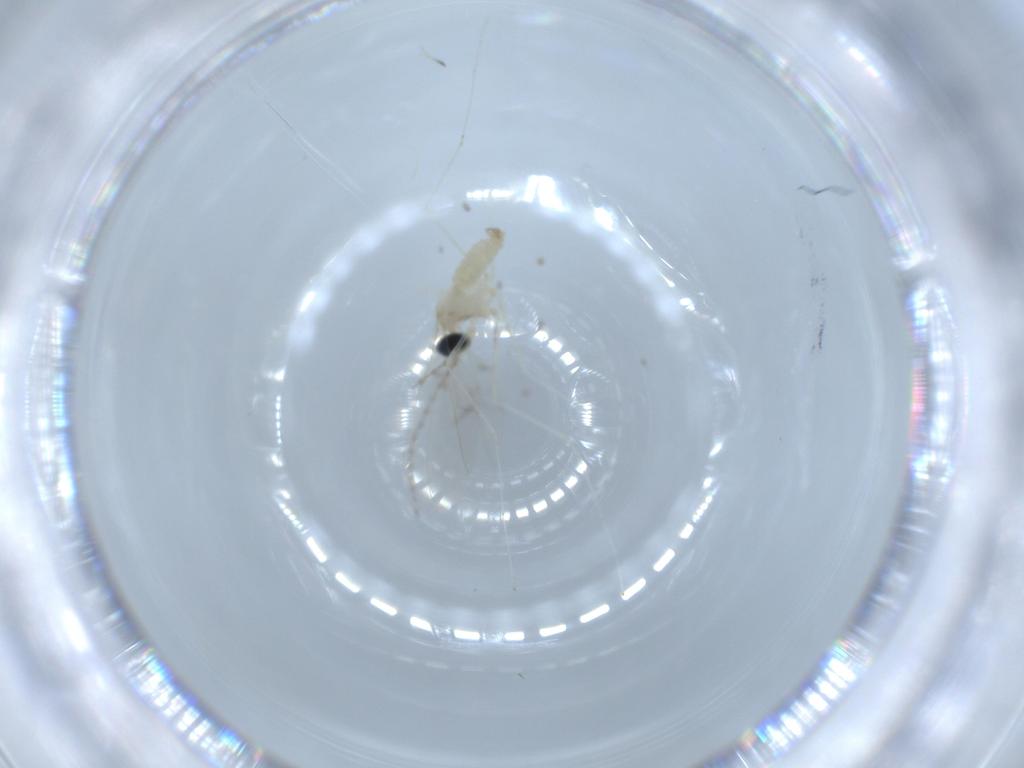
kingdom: Animalia
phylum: Arthropoda
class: Insecta
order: Diptera
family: Cecidomyiidae
